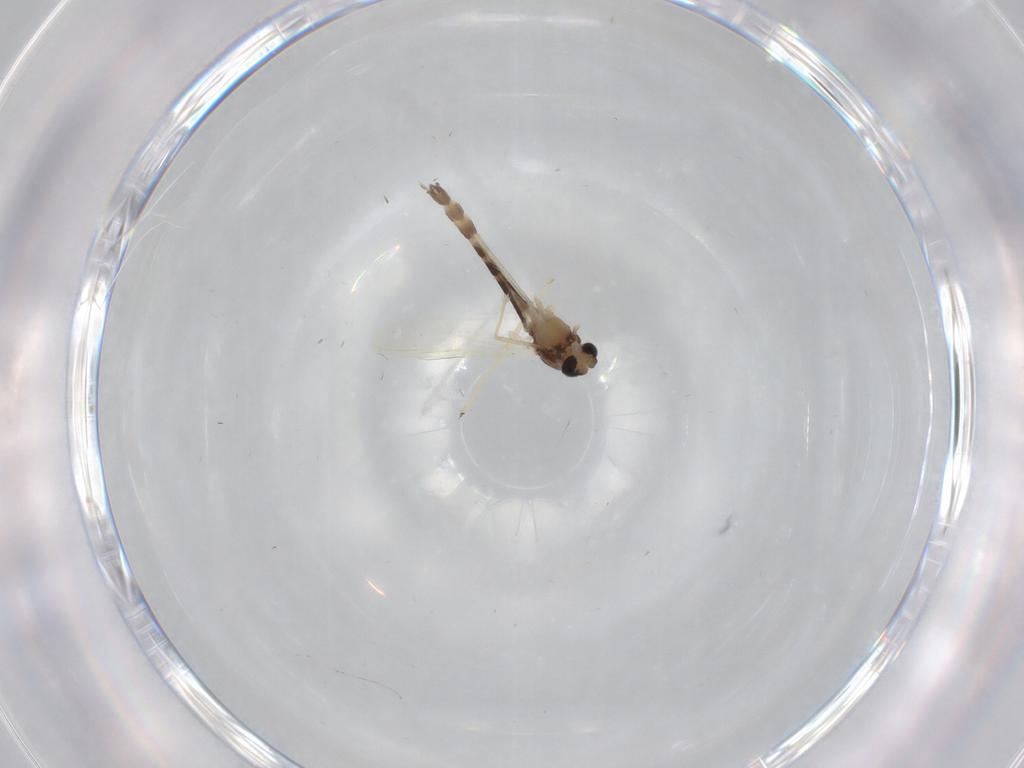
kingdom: Animalia
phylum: Arthropoda
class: Insecta
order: Diptera
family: Chironomidae
